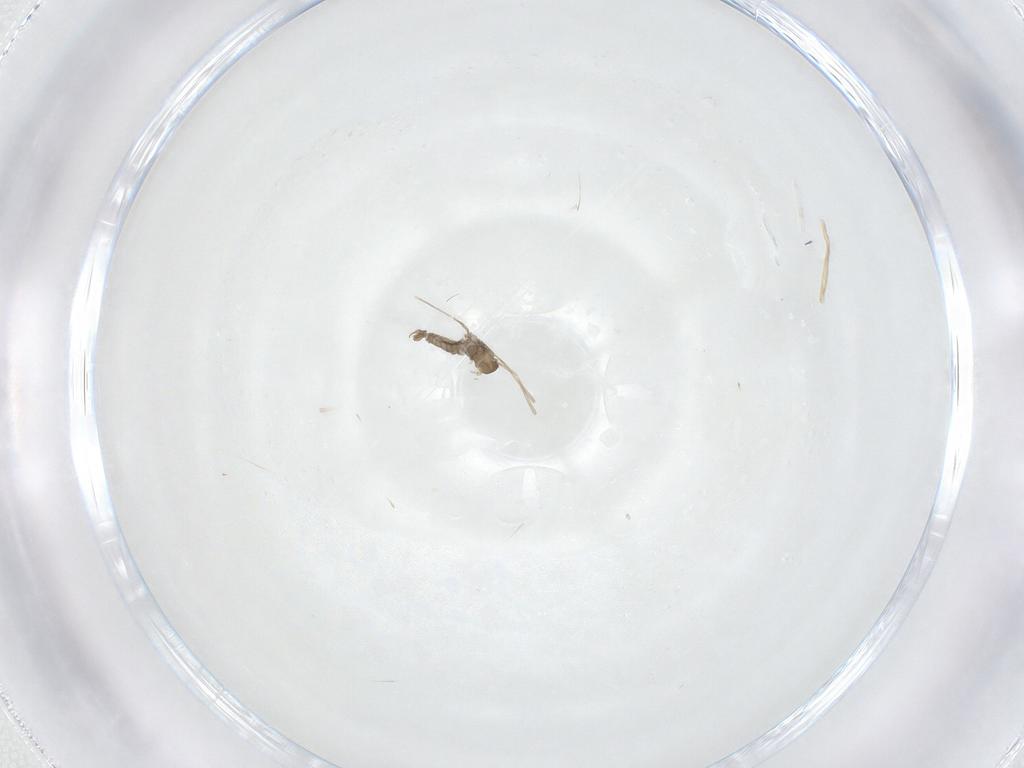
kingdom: Animalia
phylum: Arthropoda
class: Insecta
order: Diptera
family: Cecidomyiidae
